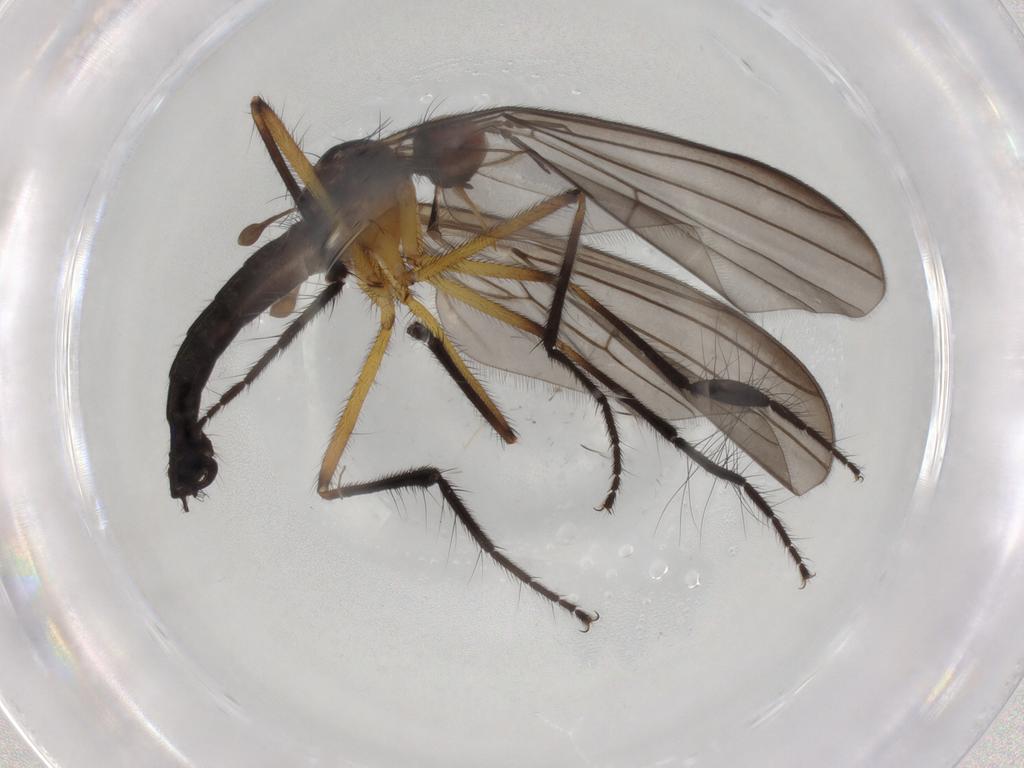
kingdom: Animalia
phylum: Arthropoda
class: Insecta
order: Diptera
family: Empididae
